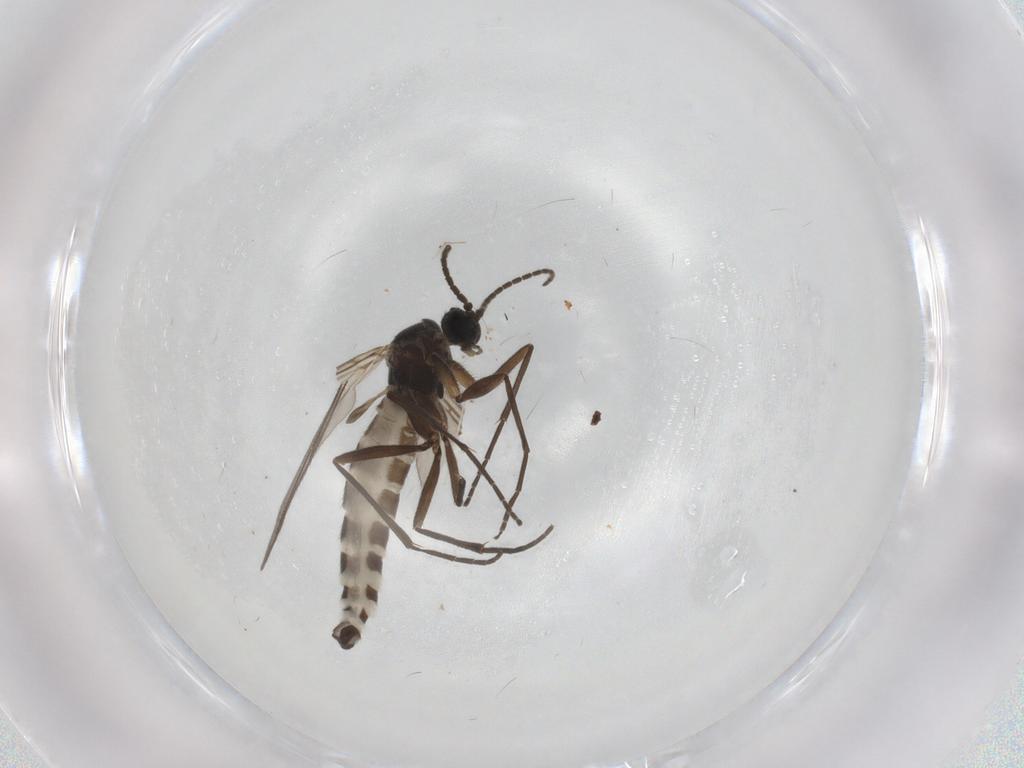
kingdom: Animalia
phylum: Arthropoda
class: Insecta
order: Diptera
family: Sciaridae
